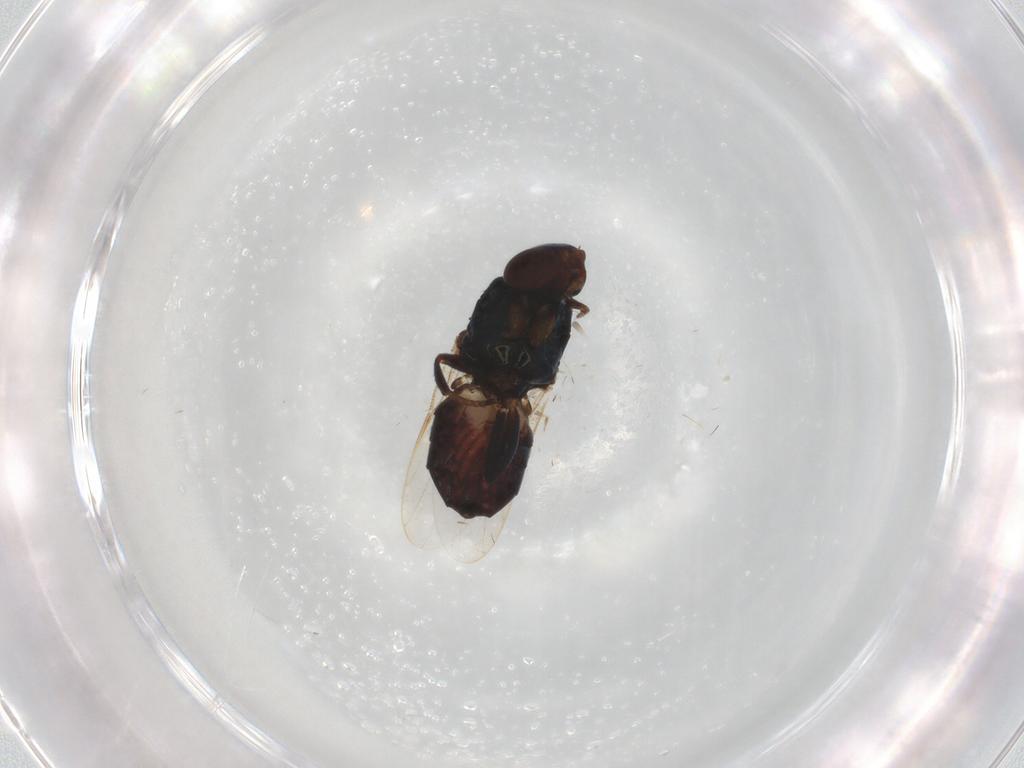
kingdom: Animalia
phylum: Arthropoda
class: Insecta
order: Diptera
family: Chloropidae
